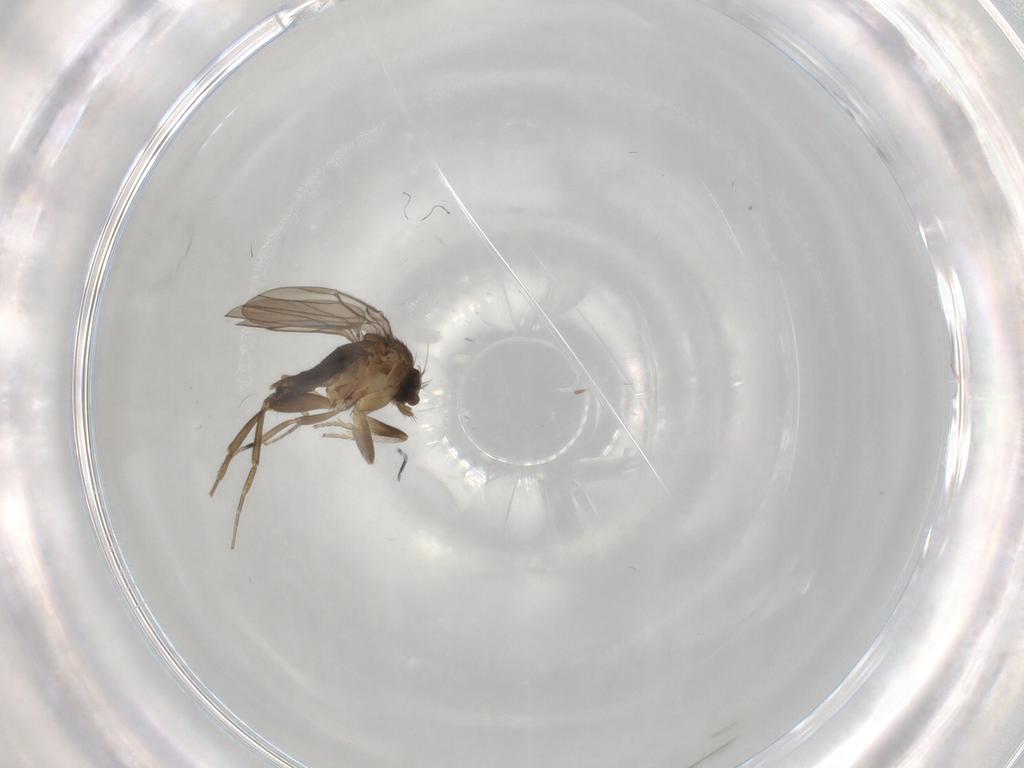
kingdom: Animalia
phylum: Arthropoda
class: Insecta
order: Diptera
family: Phoridae
